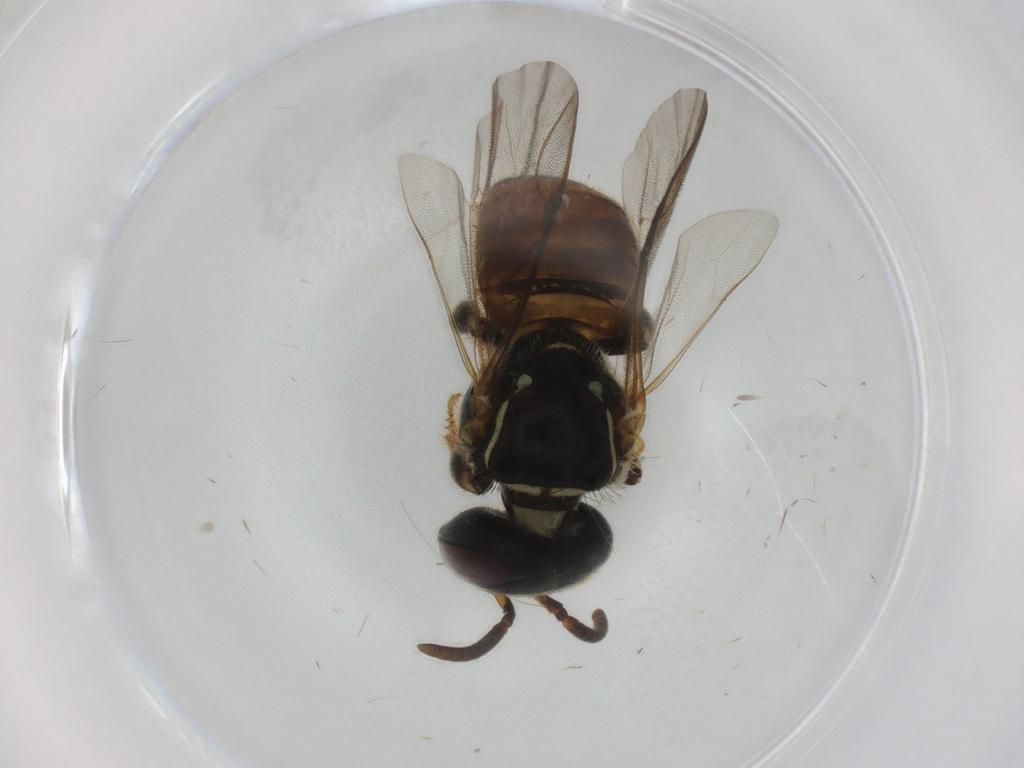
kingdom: Animalia
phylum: Arthropoda
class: Insecta
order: Hymenoptera
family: Apidae
